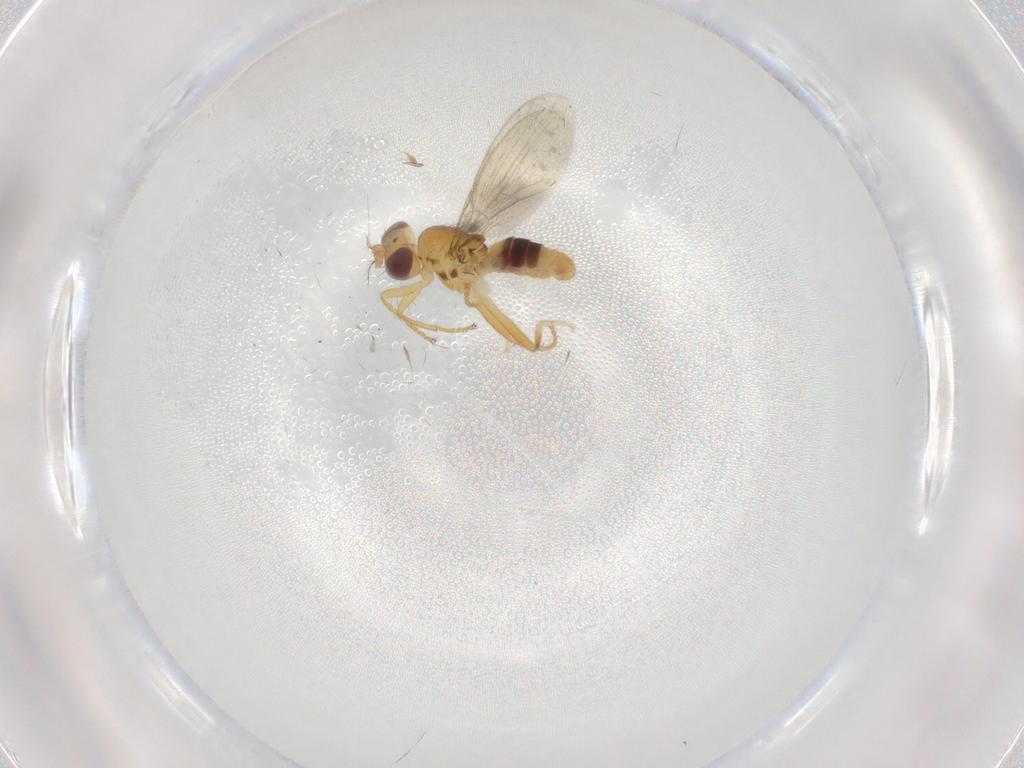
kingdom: Animalia
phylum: Arthropoda
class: Insecta
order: Diptera
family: Periscelididae
